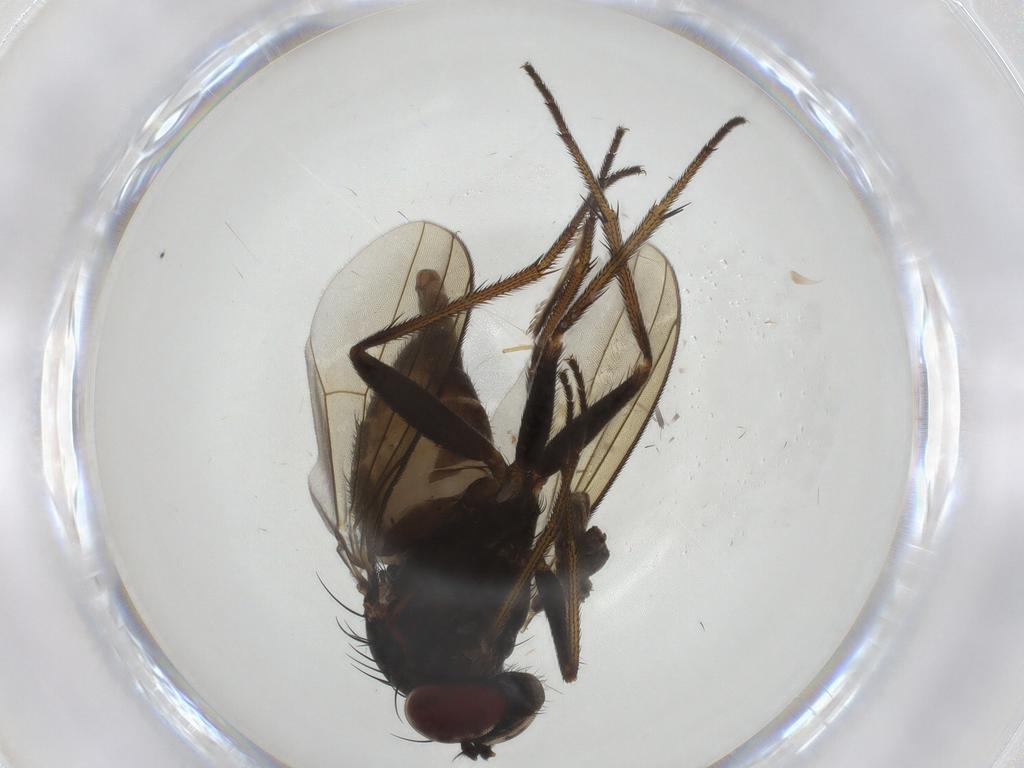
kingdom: Animalia
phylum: Arthropoda
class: Insecta
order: Diptera
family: Dolichopodidae
